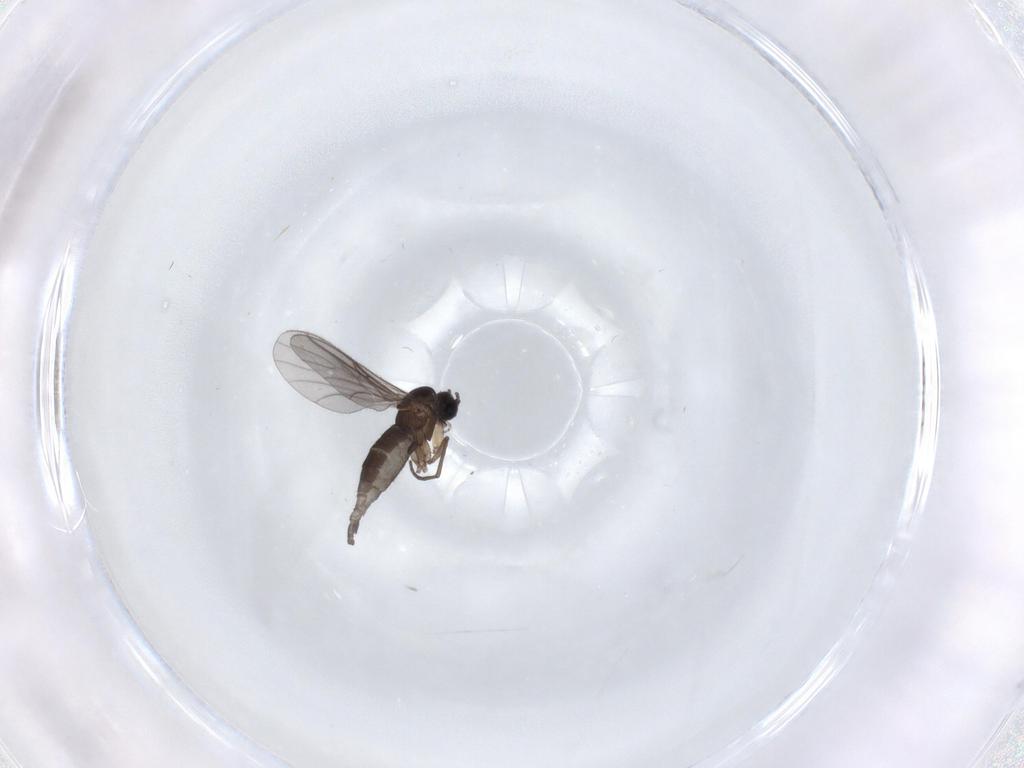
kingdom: Animalia
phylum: Arthropoda
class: Insecta
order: Diptera
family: Sciaridae
